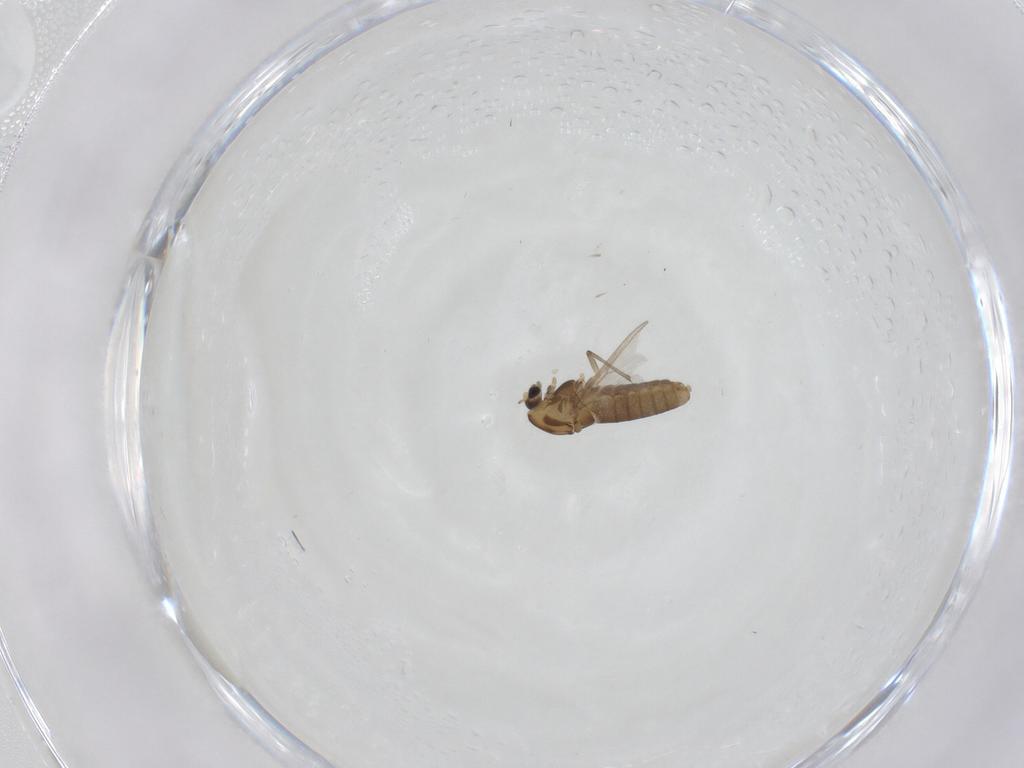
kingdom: Animalia
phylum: Arthropoda
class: Insecta
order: Diptera
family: Chironomidae
